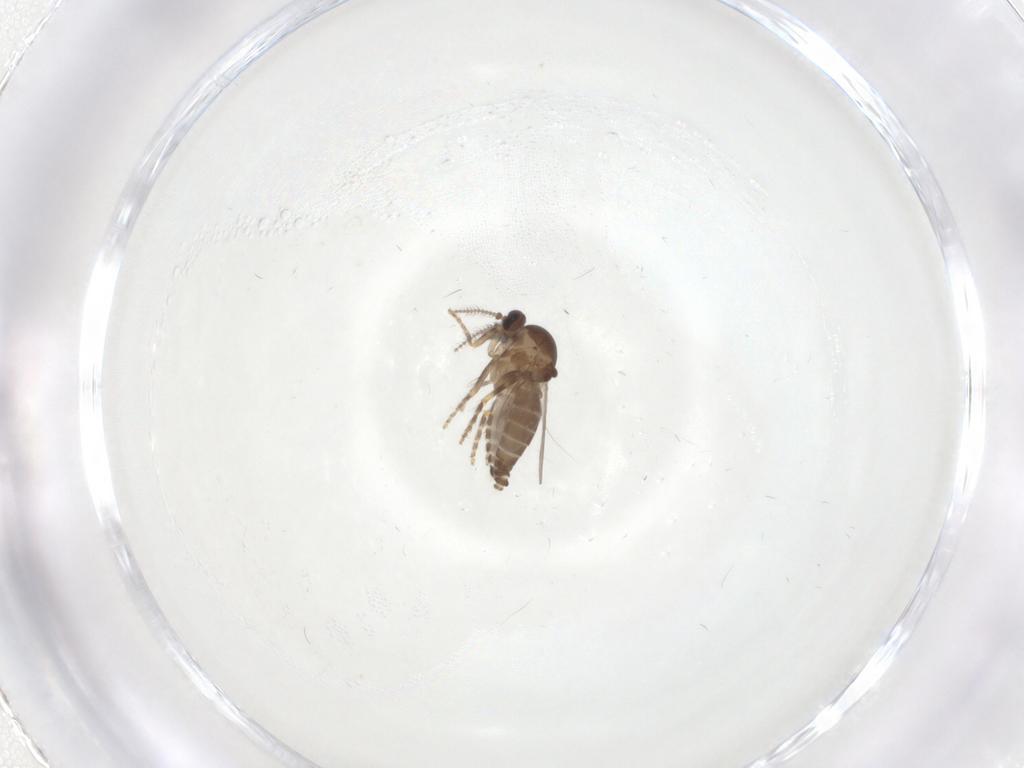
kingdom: Animalia
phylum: Arthropoda
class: Insecta
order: Diptera
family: Ceratopogonidae
